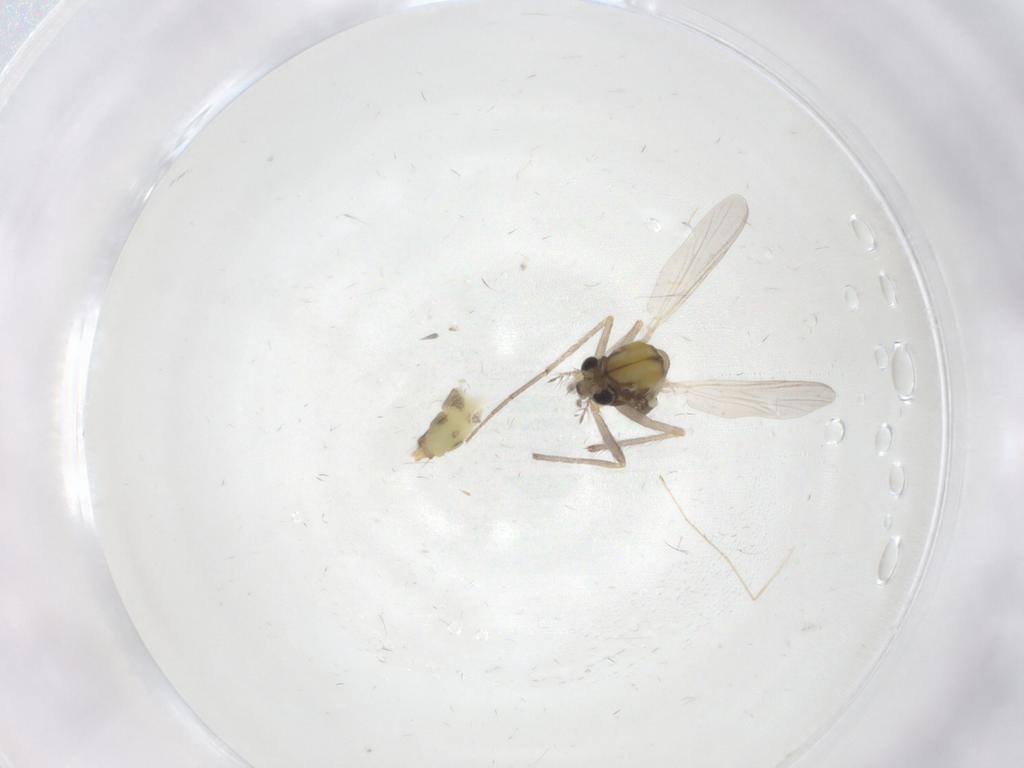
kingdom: Animalia
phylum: Arthropoda
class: Insecta
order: Diptera
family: Chironomidae
